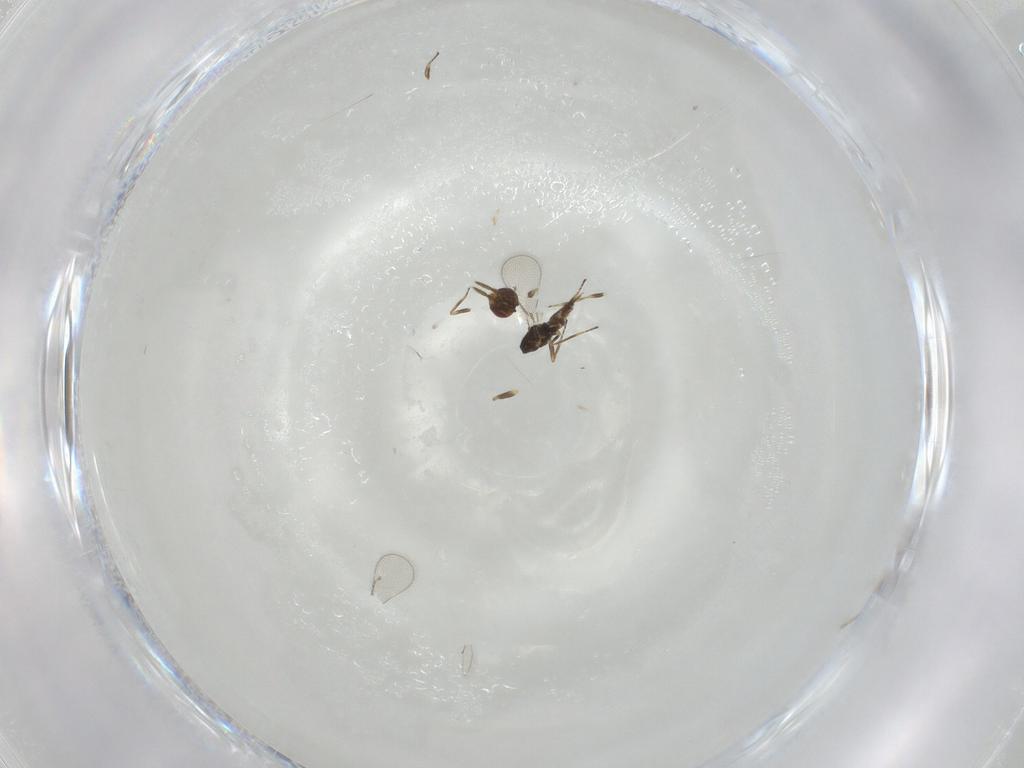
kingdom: Animalia
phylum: Arthropoda
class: Insecta
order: Hymenoptera
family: Eulophidae
